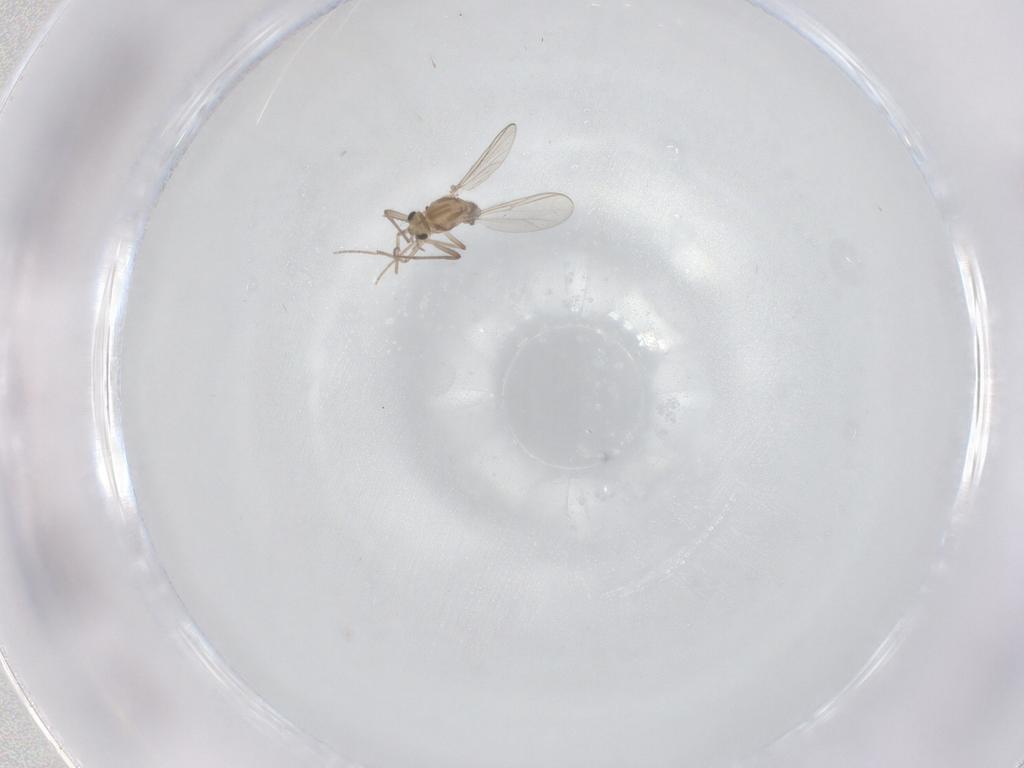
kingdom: Animalia
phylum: Arthropoda
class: Insecta
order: Diptera
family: Chironomidae
